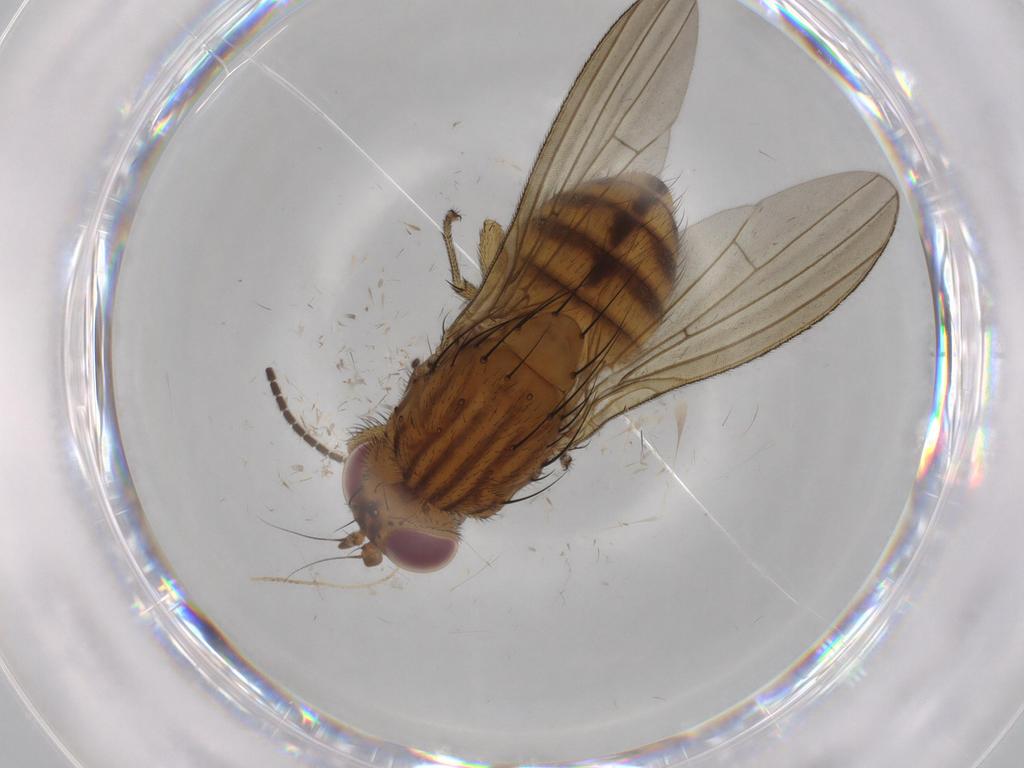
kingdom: Animalia
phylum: Arthropoda
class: Insecta
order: Diptera
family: Sciaridae
